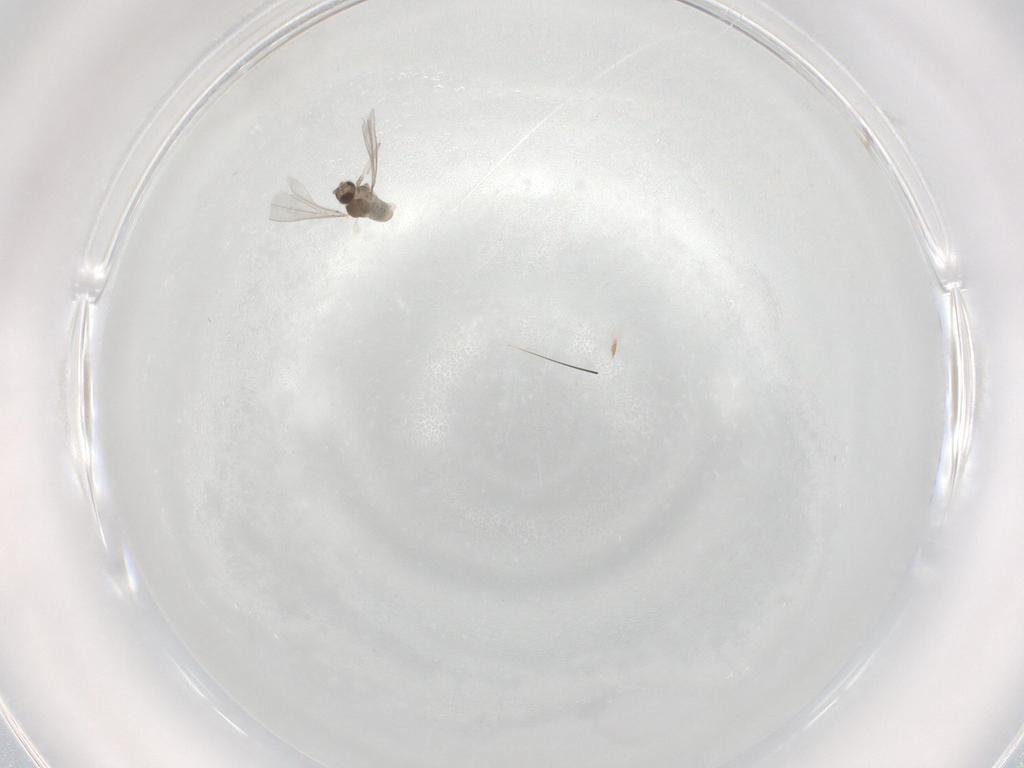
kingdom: Animalia
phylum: Arthropoda
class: Insecta
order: Diptera
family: Cecidomyiidae
